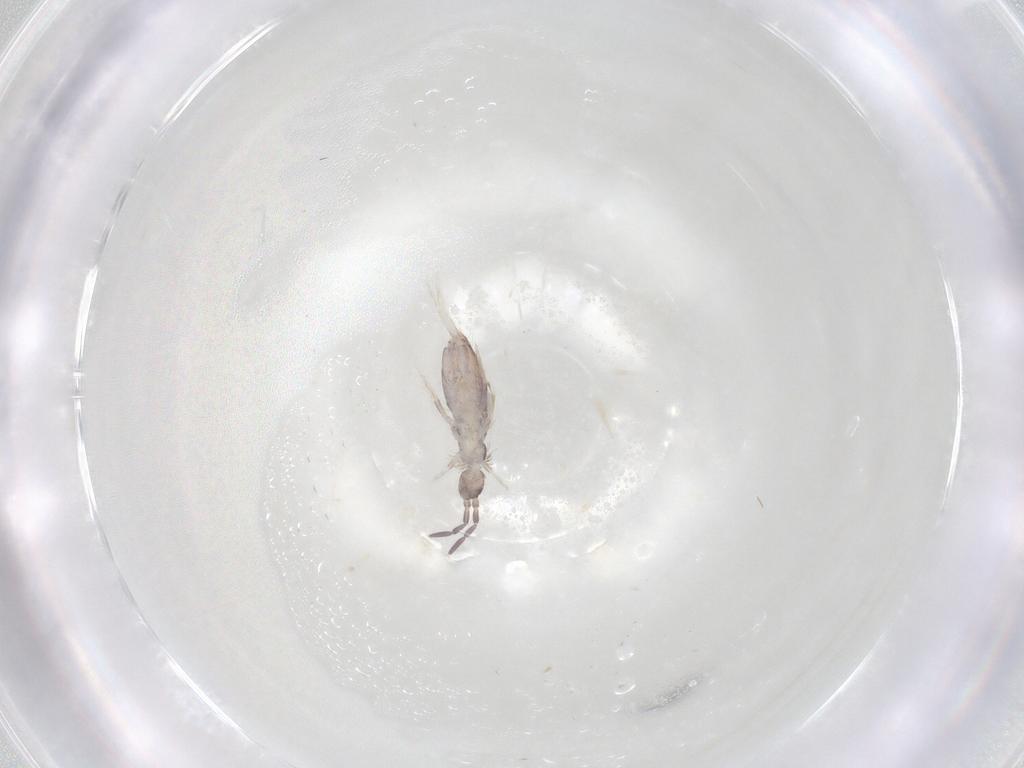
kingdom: Animalia
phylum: Arthropoda
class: Collembola
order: Poduromorpha
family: Hypogastruridae
